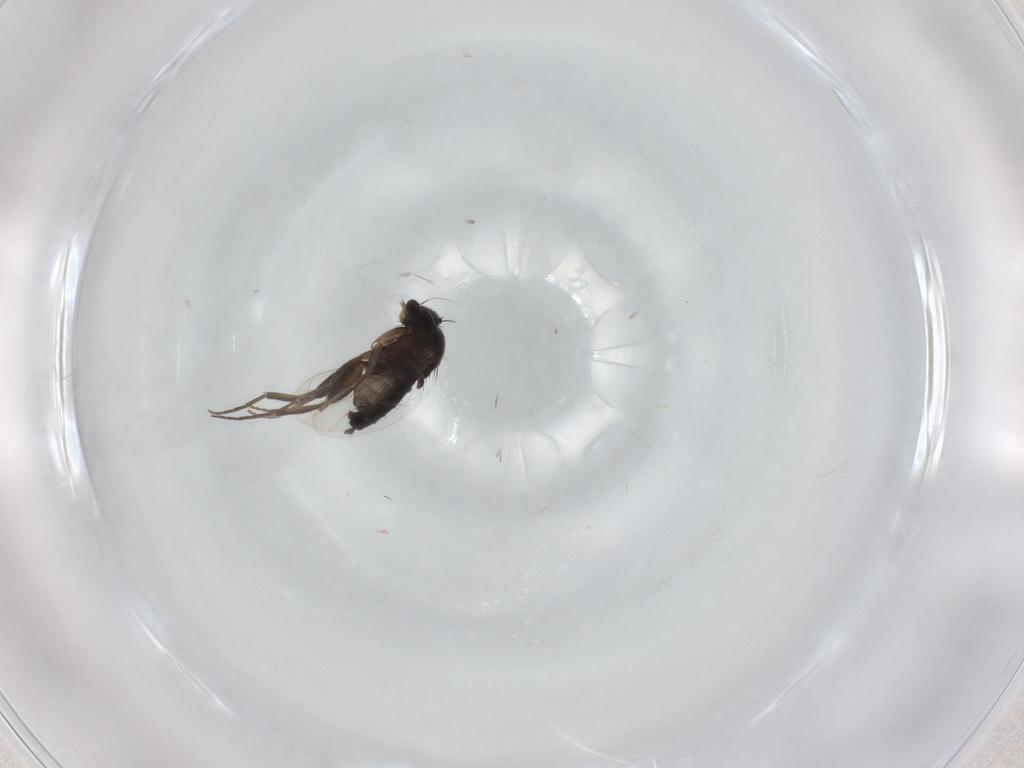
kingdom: Animalia
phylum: Arthropoda
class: Insecta
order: Diptera
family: Phoridae
